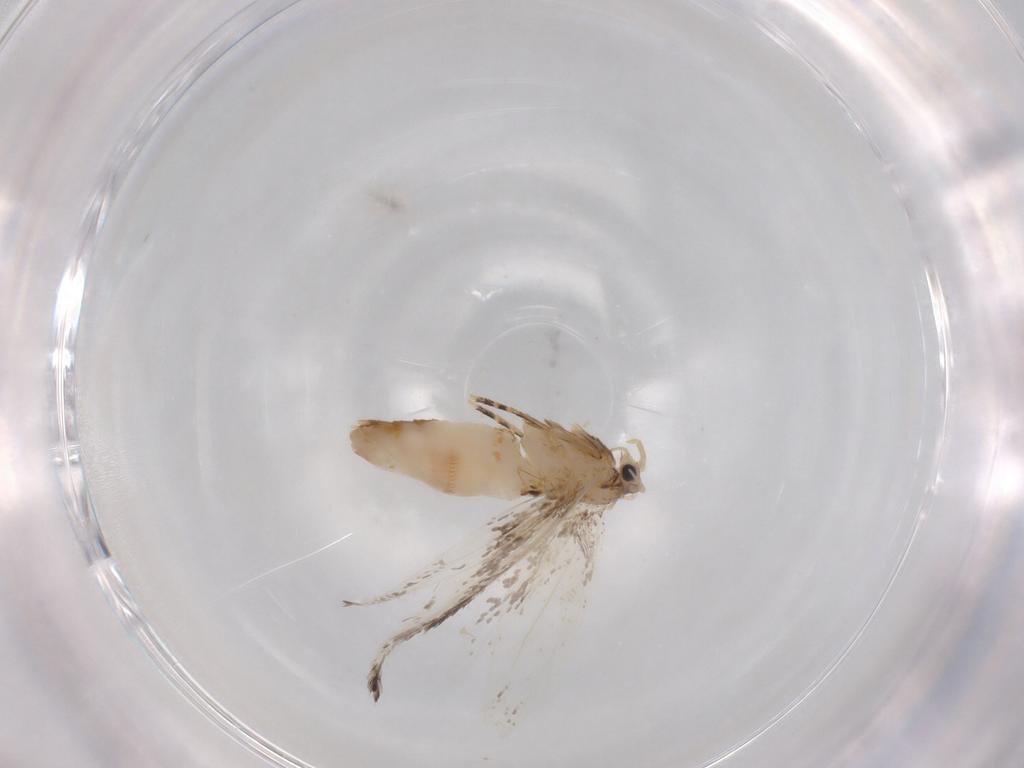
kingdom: Animalia
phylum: Arthropoda
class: Insecta
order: Lepidoptera
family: Incurvariidae
